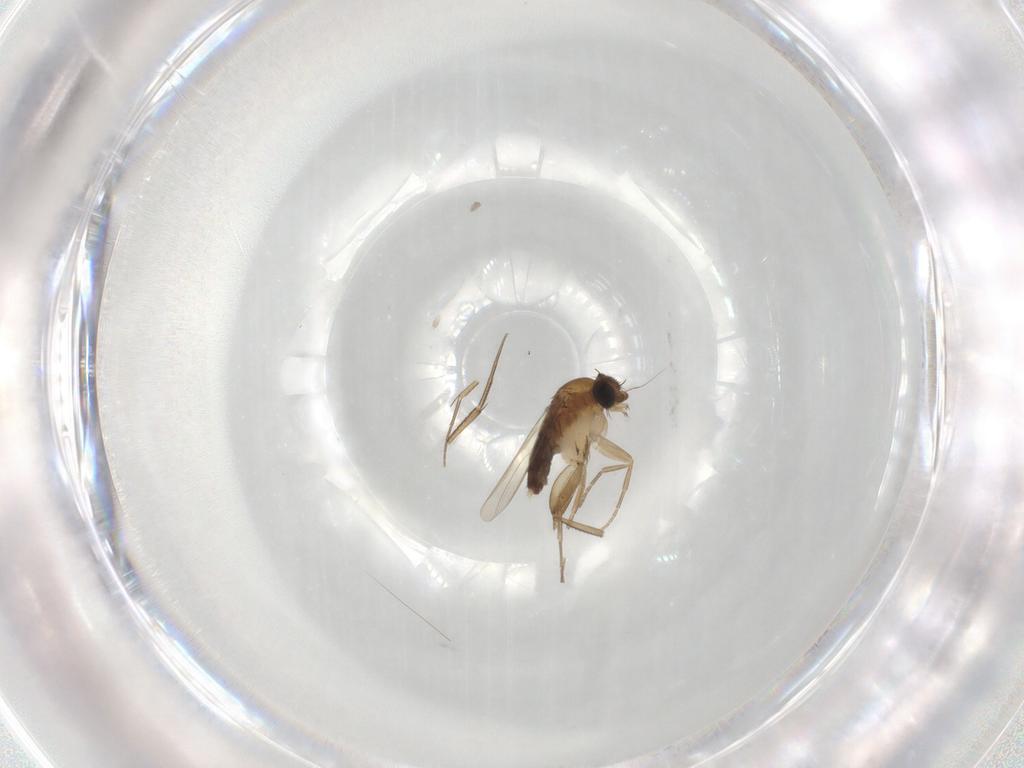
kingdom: Animalia
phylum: Arthropoda
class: Insecta
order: Diptera
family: Phoridae
